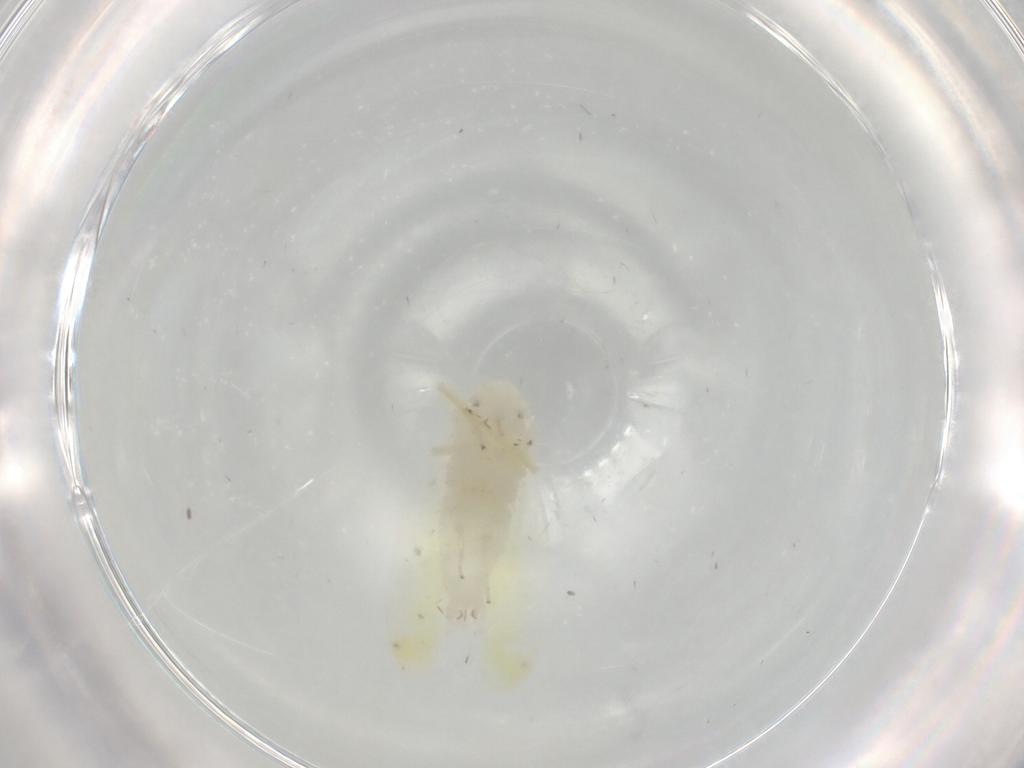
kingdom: Animalia
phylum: Arthropoda
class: Insecta
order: Hemiptera
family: Cicadellidae
